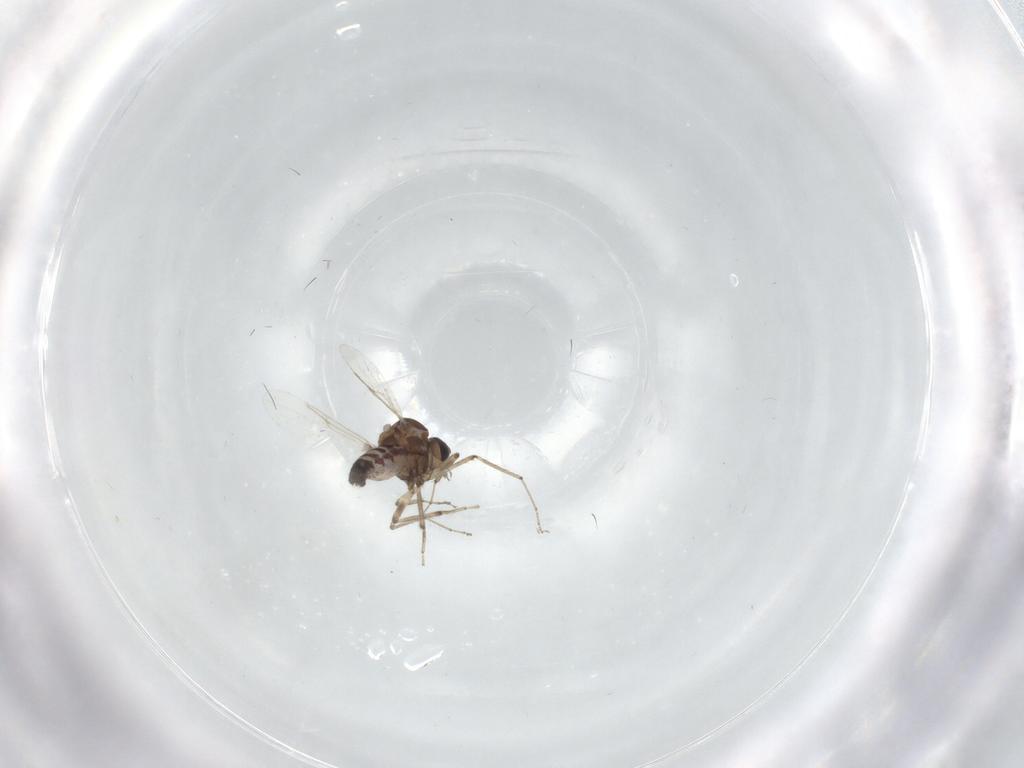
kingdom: Animalia
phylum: Arthropoda
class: Insecta
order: Diptera
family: Ceratopogonidae
